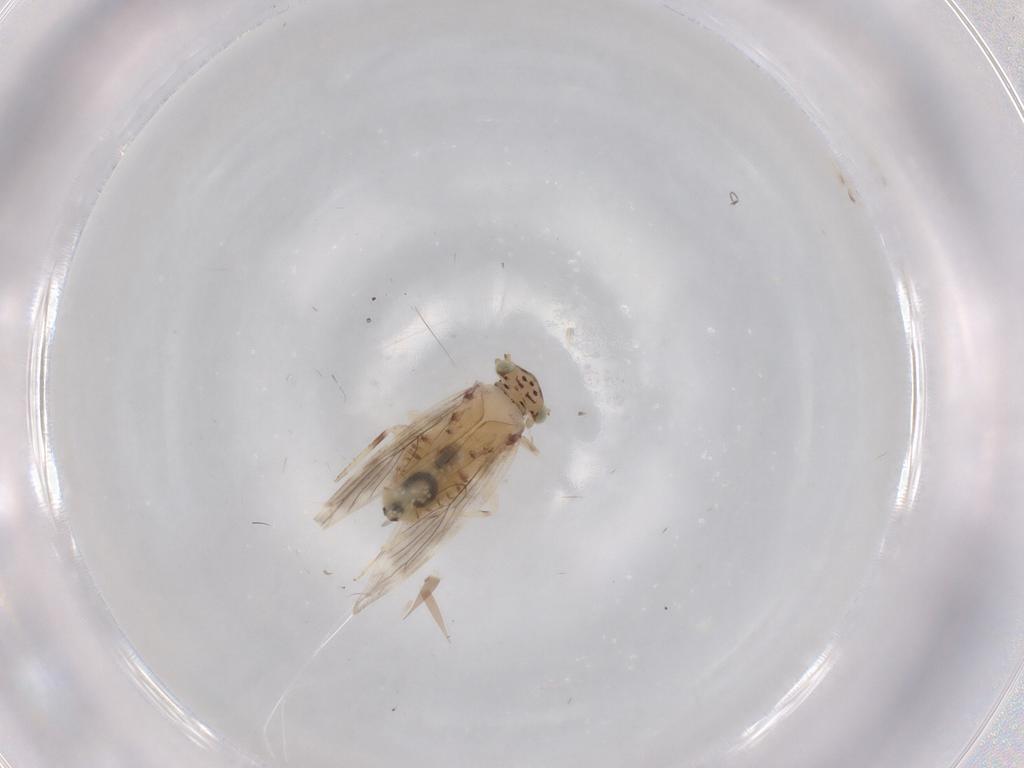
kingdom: Animalia
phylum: Arthropoda
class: Insecta
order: Psocodea
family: Lepidopsocidae
